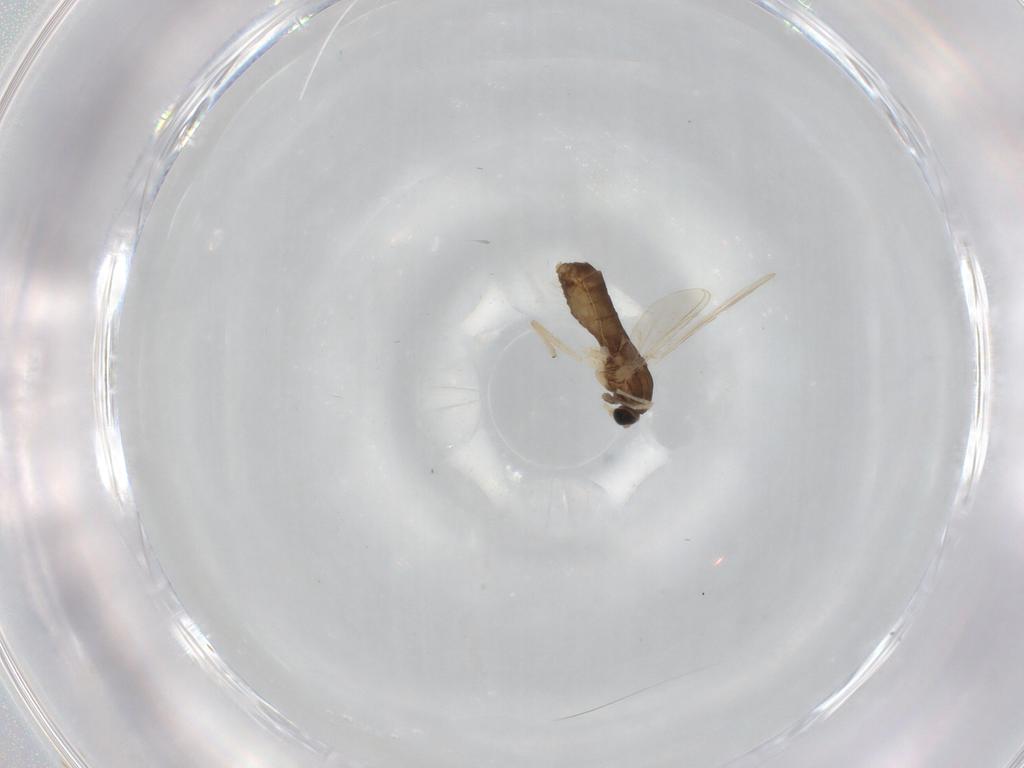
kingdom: Animalia
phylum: Arthropoda
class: Insecta
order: Diptera
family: Chironomidae
